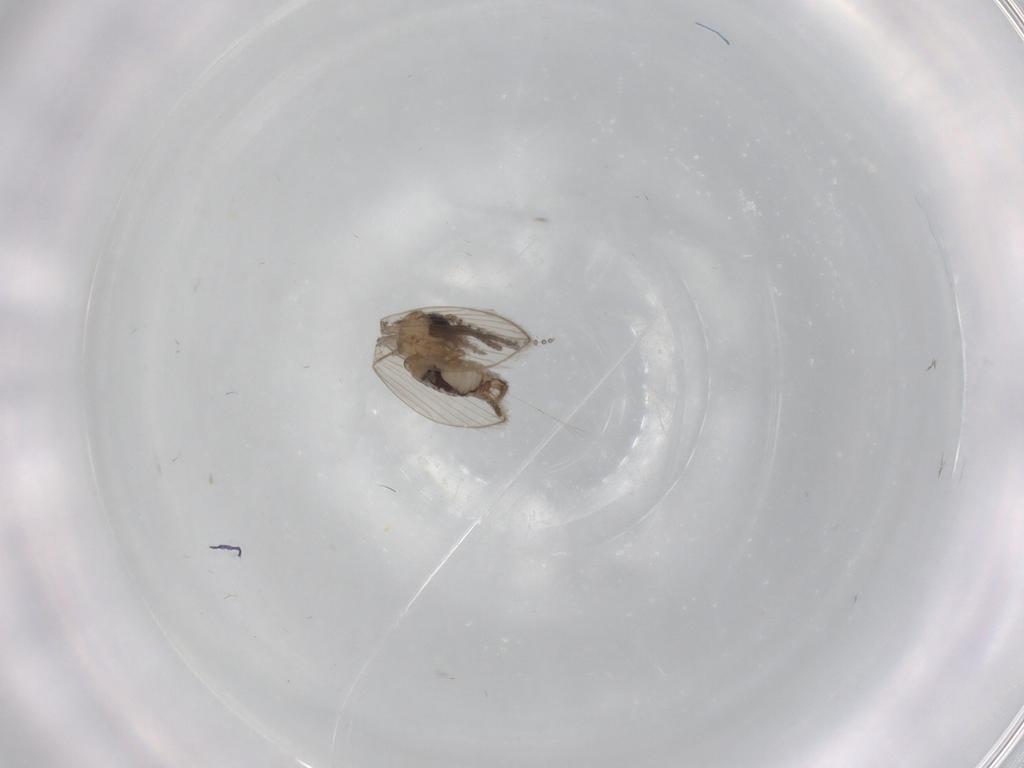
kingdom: Animalia
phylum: Arthropoda
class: Insecta
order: Diptera
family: Psychodidae
